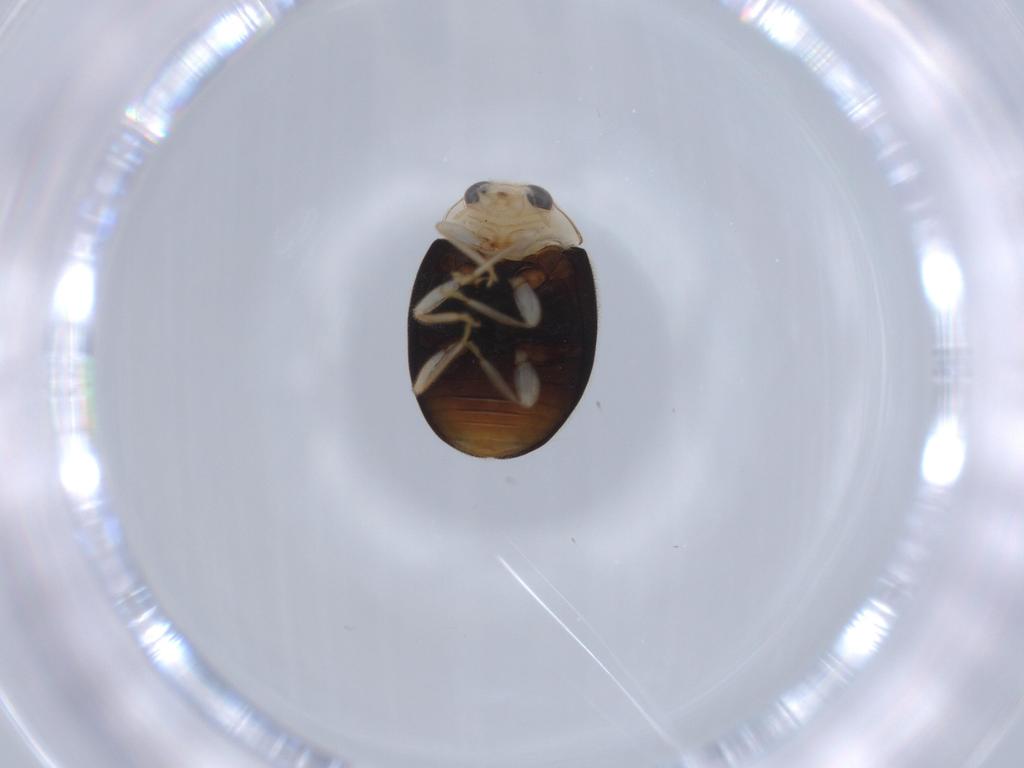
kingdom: Animalia
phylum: Arthropoda
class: Insecta
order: Coleoptera
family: Coccinellidae
